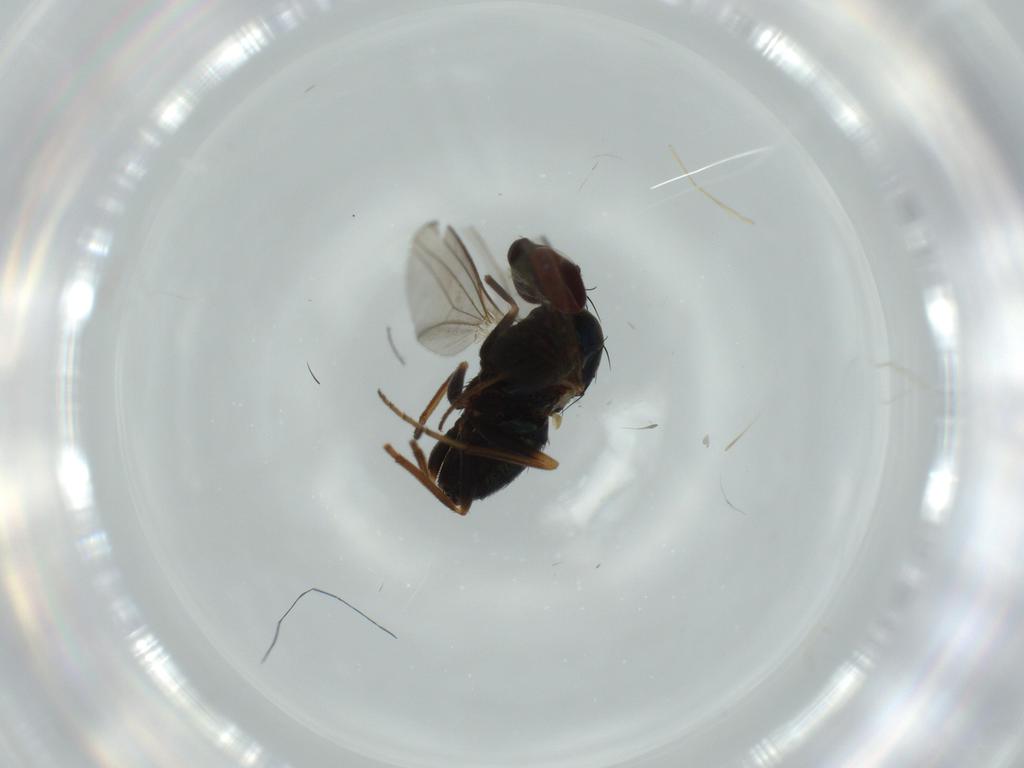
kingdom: Animalia
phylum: Arthropoda
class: Insecta
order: Diptera
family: Dolichopodidae
